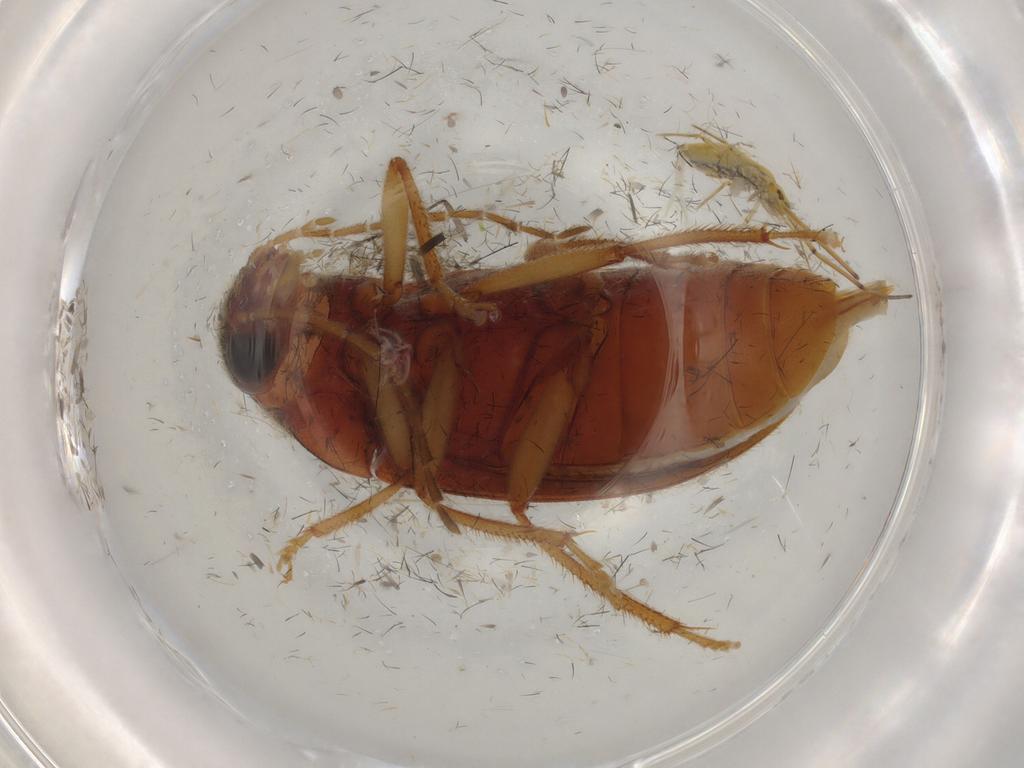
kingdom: Animalia
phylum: Arthropoda
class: Insecta
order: Coleoptera
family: Ptilodactylidae
